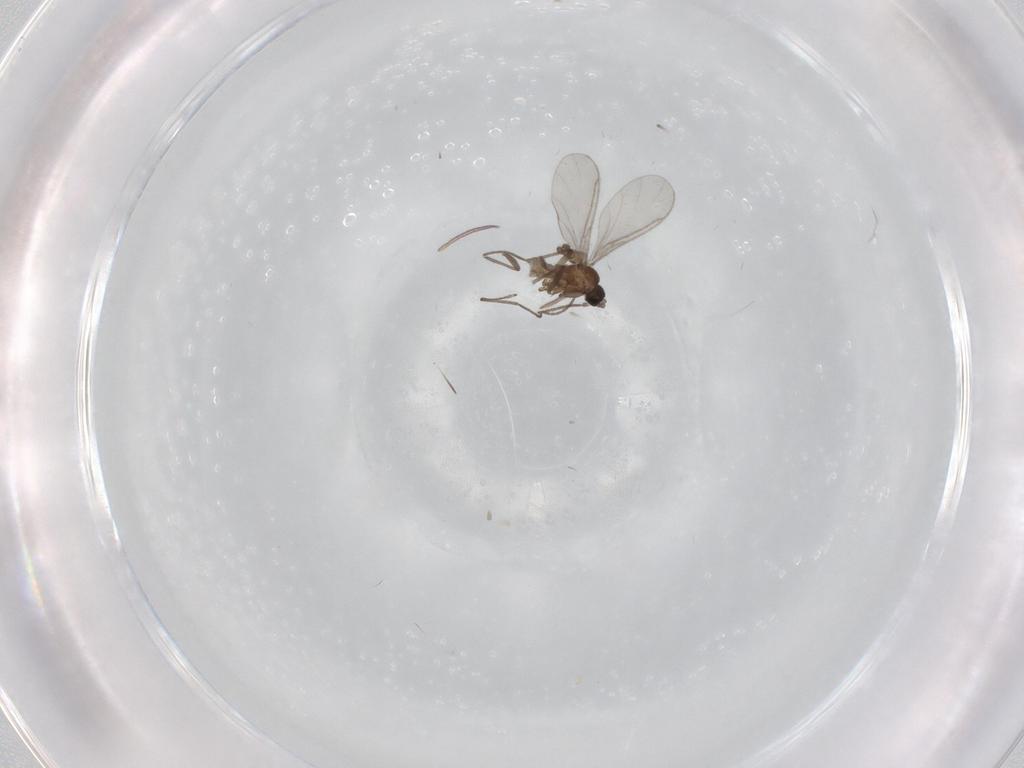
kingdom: Animalia
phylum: Arthropoda
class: Insecta
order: Diptera
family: Sciaridae
